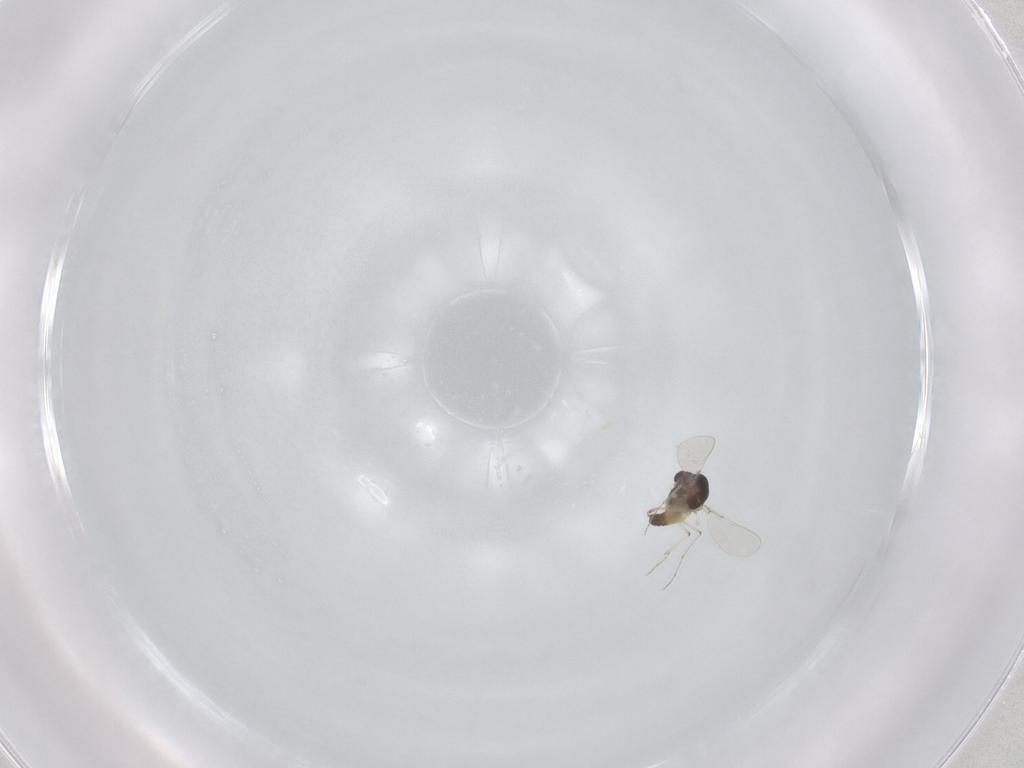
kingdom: Animalia
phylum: Arthropoda
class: Insecta
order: Diptera
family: Chironomidae
